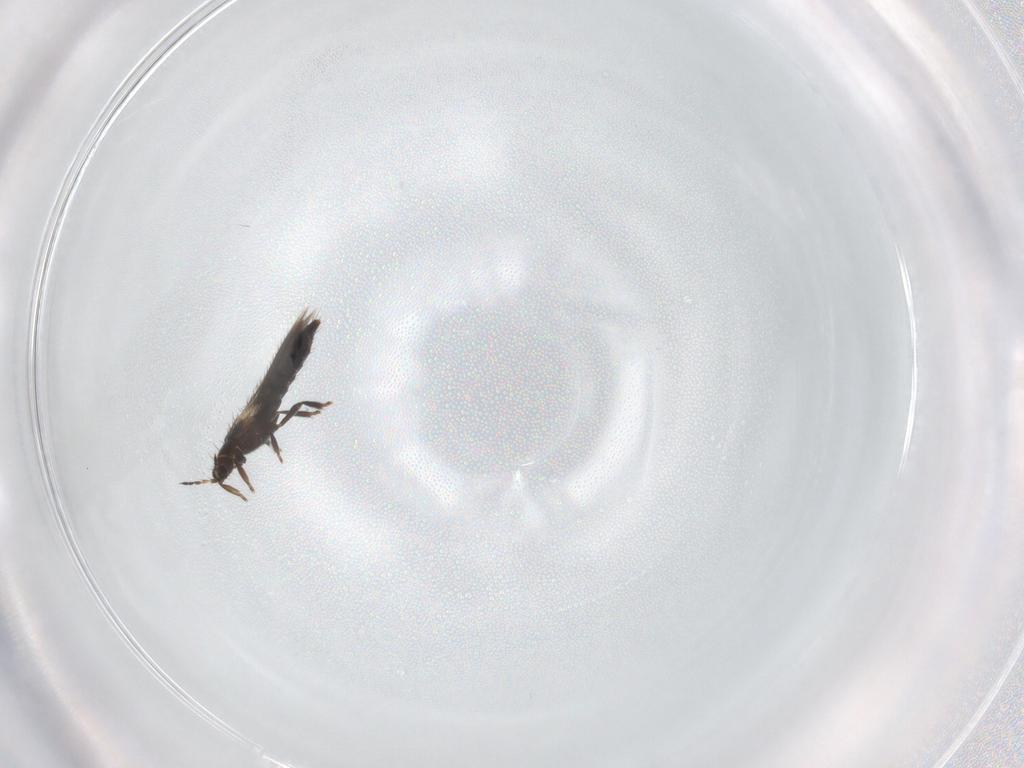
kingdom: Animalia
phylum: Arthropoda
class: Insecta
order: Thysanoptera
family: Thripidae
